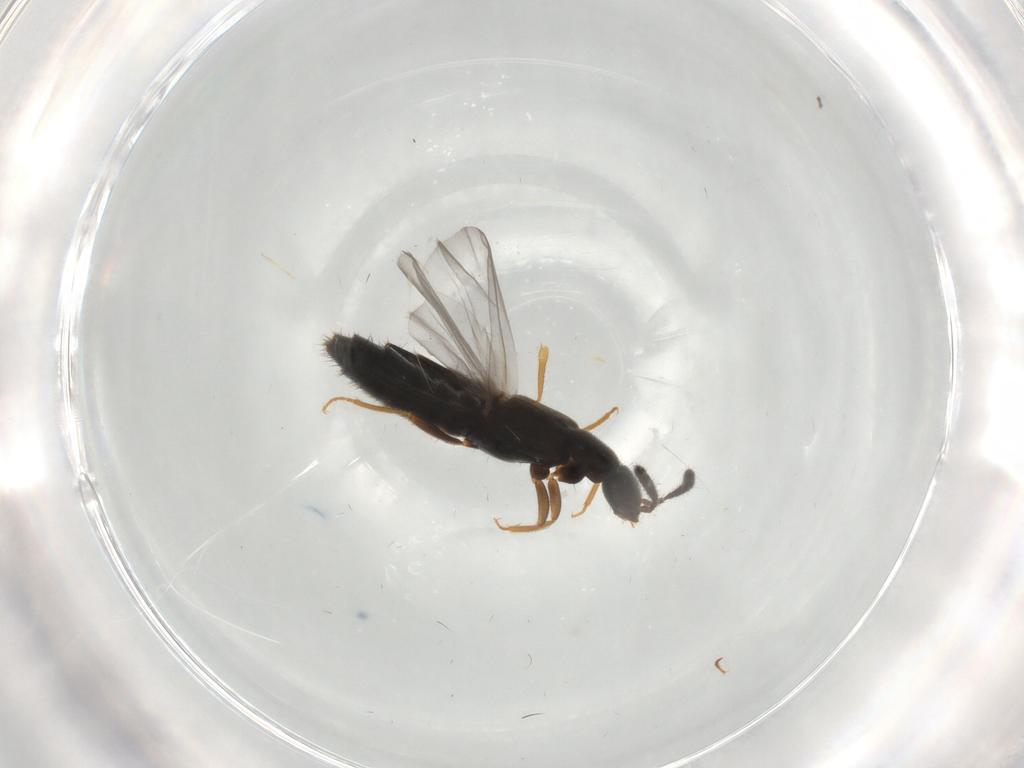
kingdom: Animalia
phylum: Arthropoda
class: Insecta
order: Coleoptera
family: Staphylinidae
